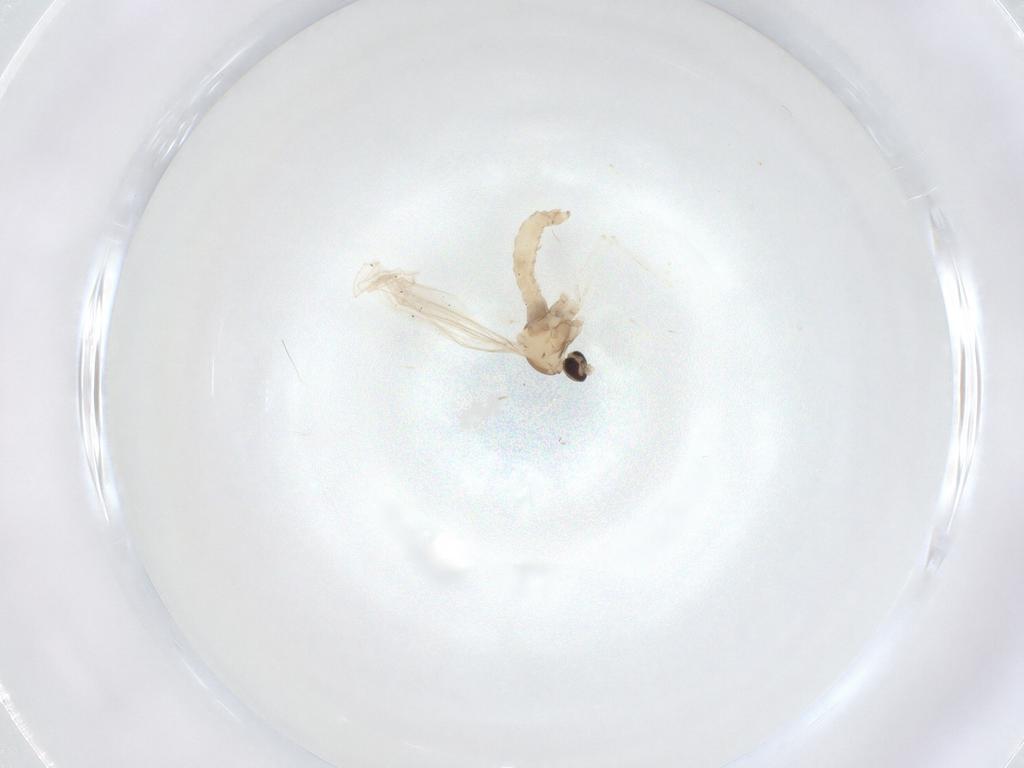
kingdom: Animalia
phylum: Arthropoda
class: Insecta
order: Diptera
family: Cecidomyiidae
